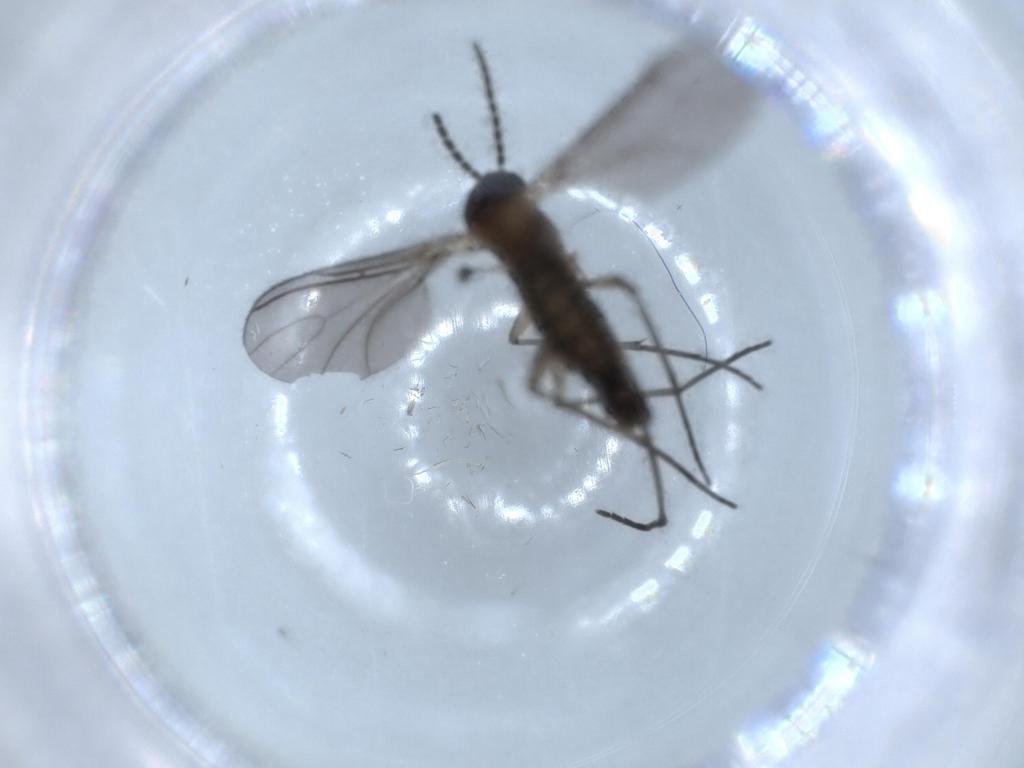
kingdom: Animalia
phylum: Arthropoda
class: Insecta
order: Diptera
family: Sciaridae
